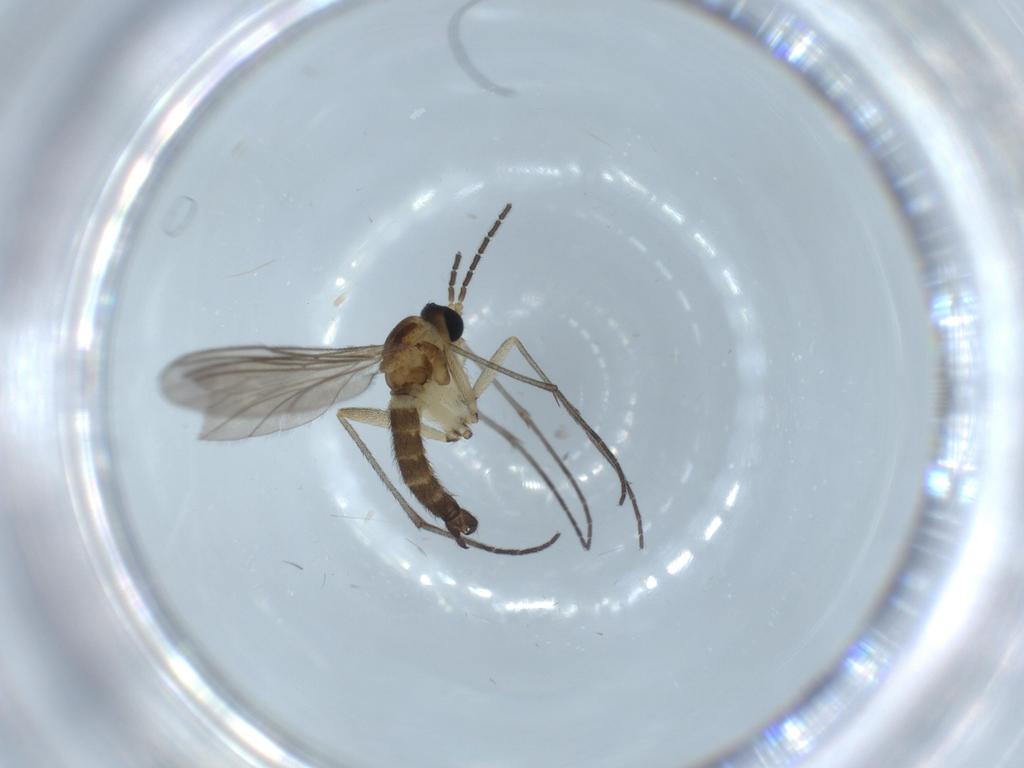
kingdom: Animalia
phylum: Arthropoda
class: Insecta
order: Diptera
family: Sciaridae
